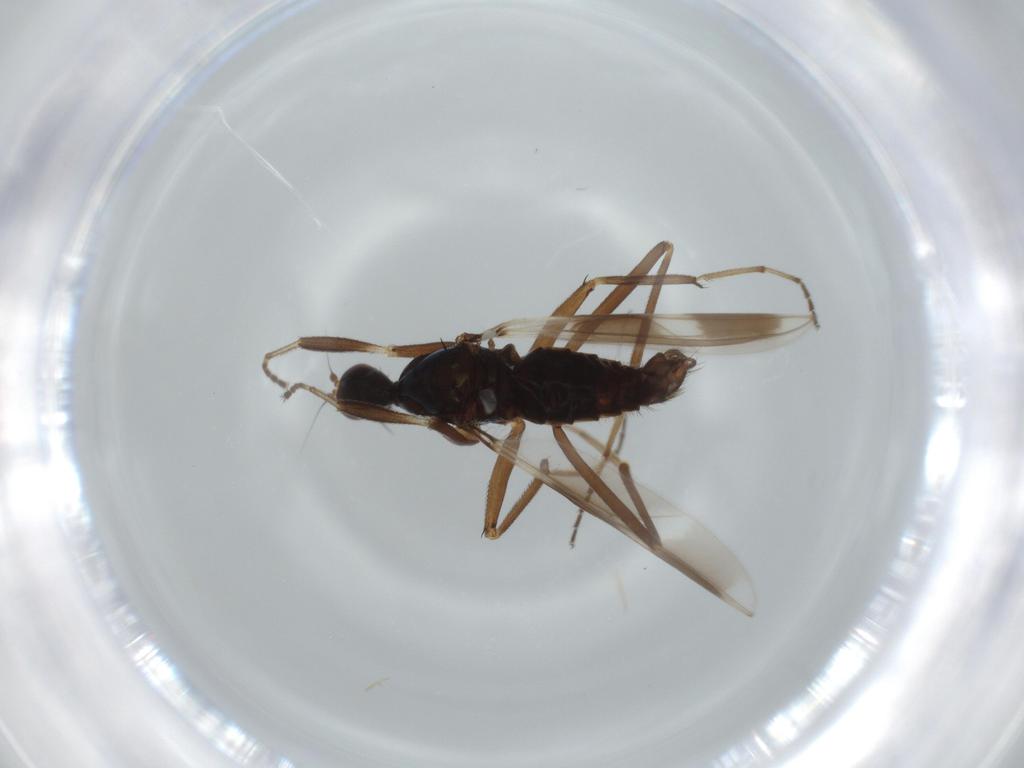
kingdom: Animalia
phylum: Arthropoda
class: Insecta
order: Diptera
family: Hybotidae
